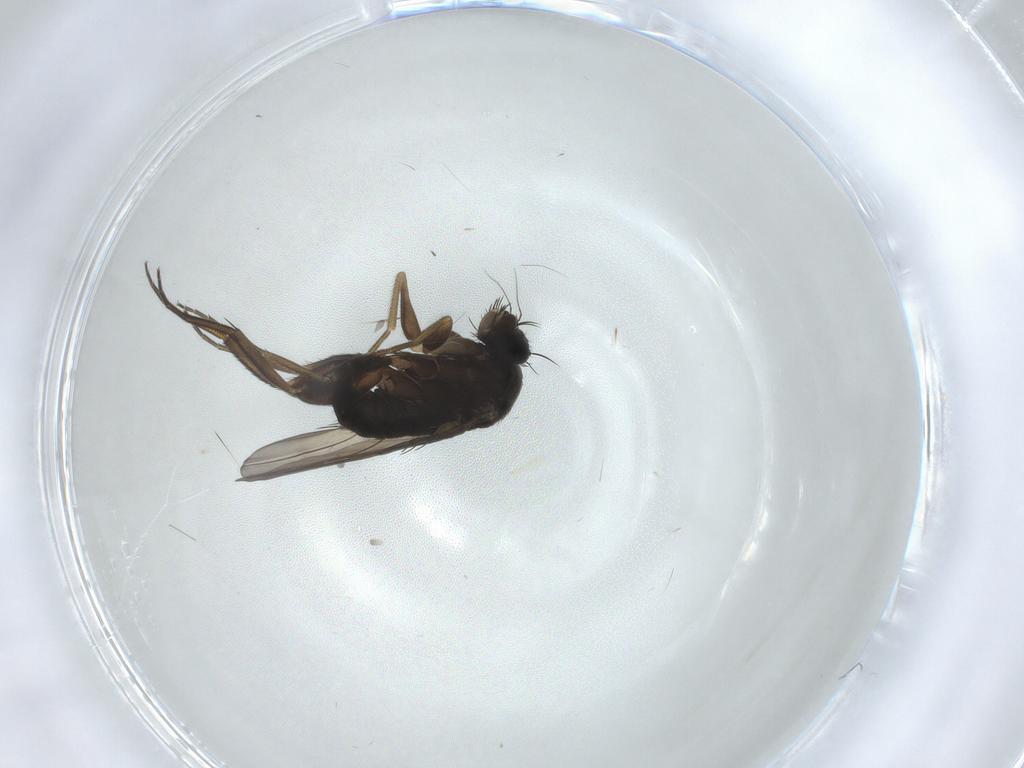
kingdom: Animalia
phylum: Arthropoda
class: Insecta
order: Diptera
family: Phoridae
